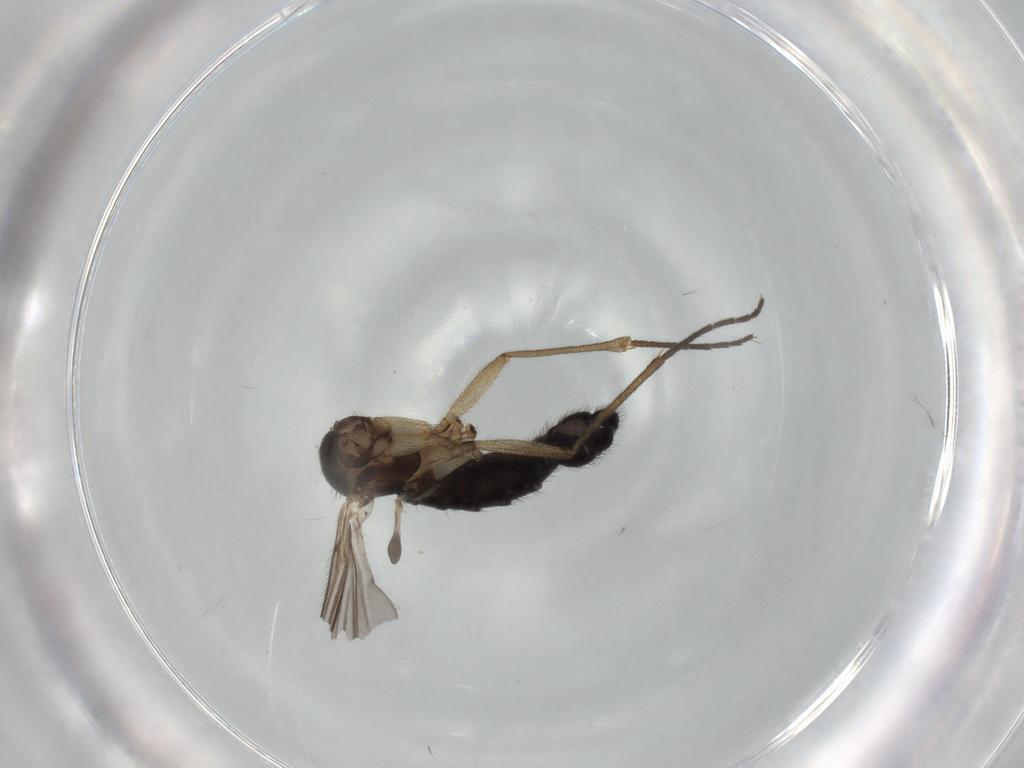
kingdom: Animalia
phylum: Arthropoda
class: Insecta
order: Diptera
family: Sciaridae
